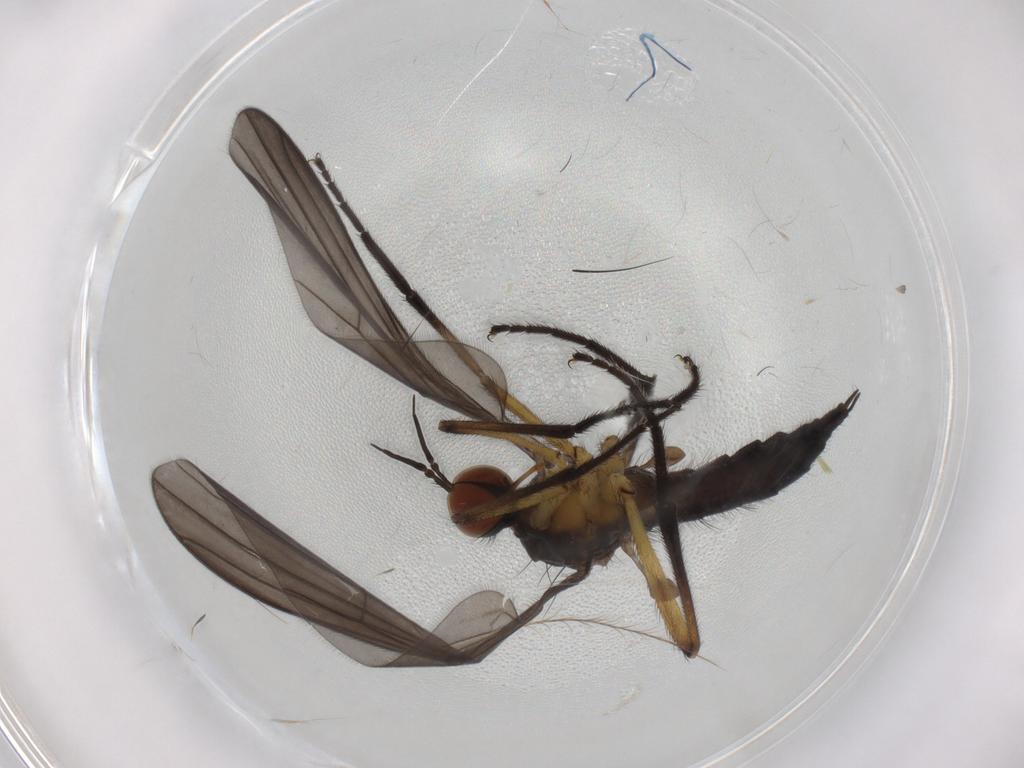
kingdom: Animalia
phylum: Arthropoda
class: Insecta
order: Diptera
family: Empididae
